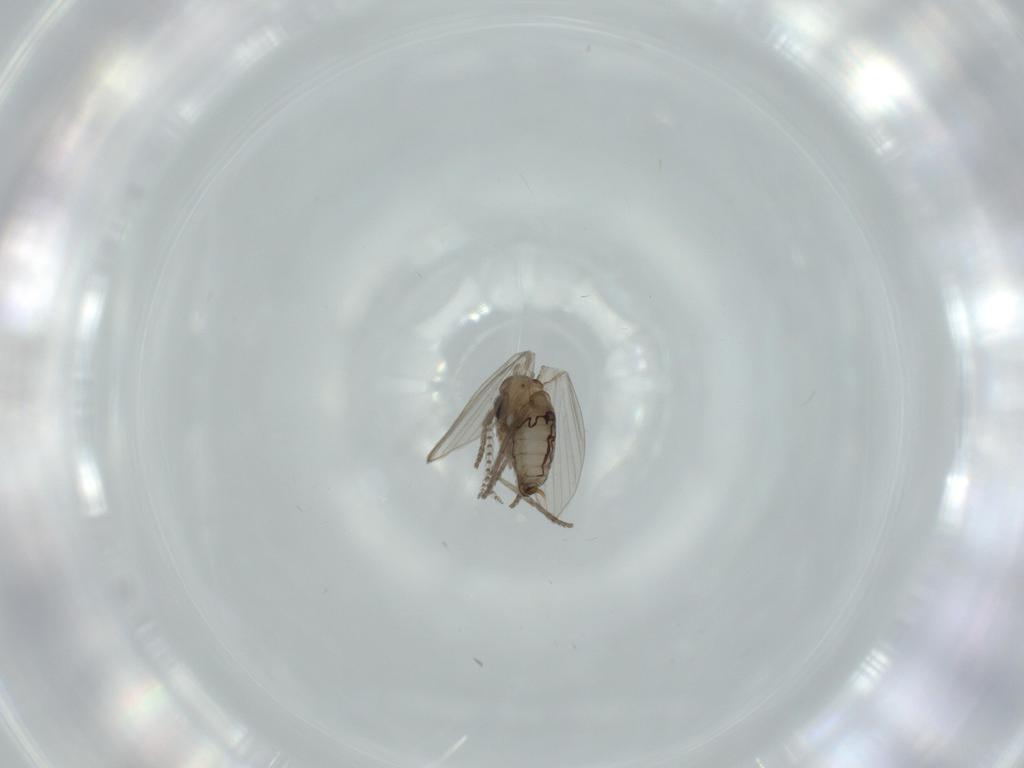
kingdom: Animalia
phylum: Arthropoda
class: Insecta
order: Diptera
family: Psychodidae
